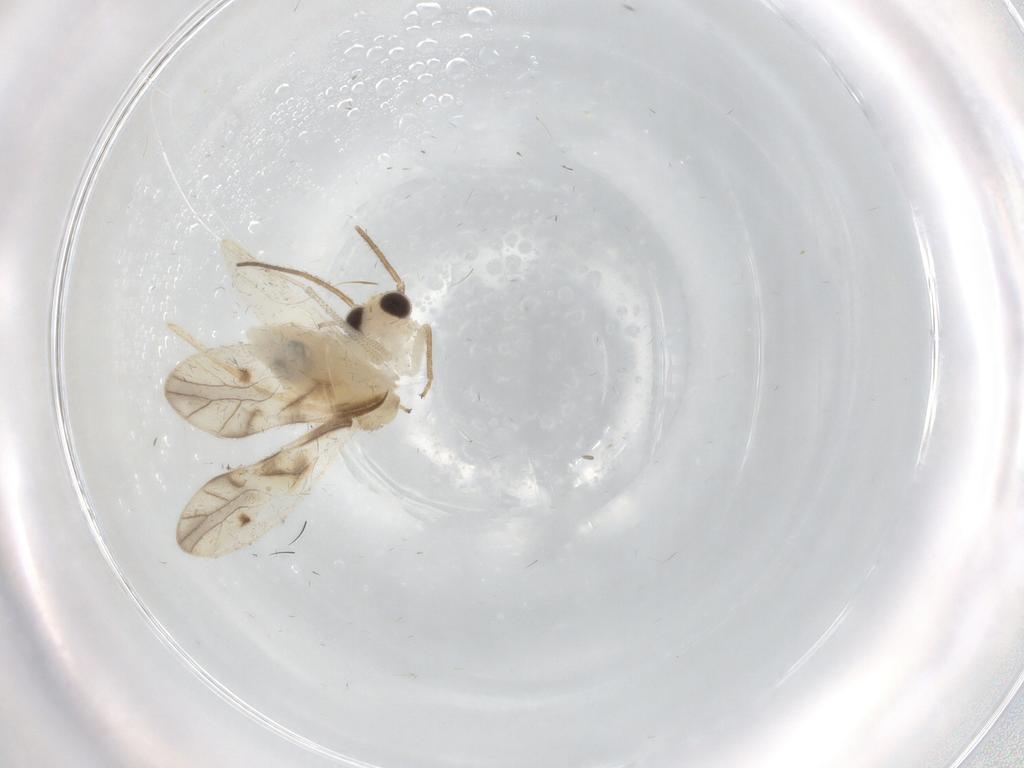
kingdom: Animalia
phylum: Arthropoda
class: Insecta
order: Psocodea
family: Caeciliusidae
